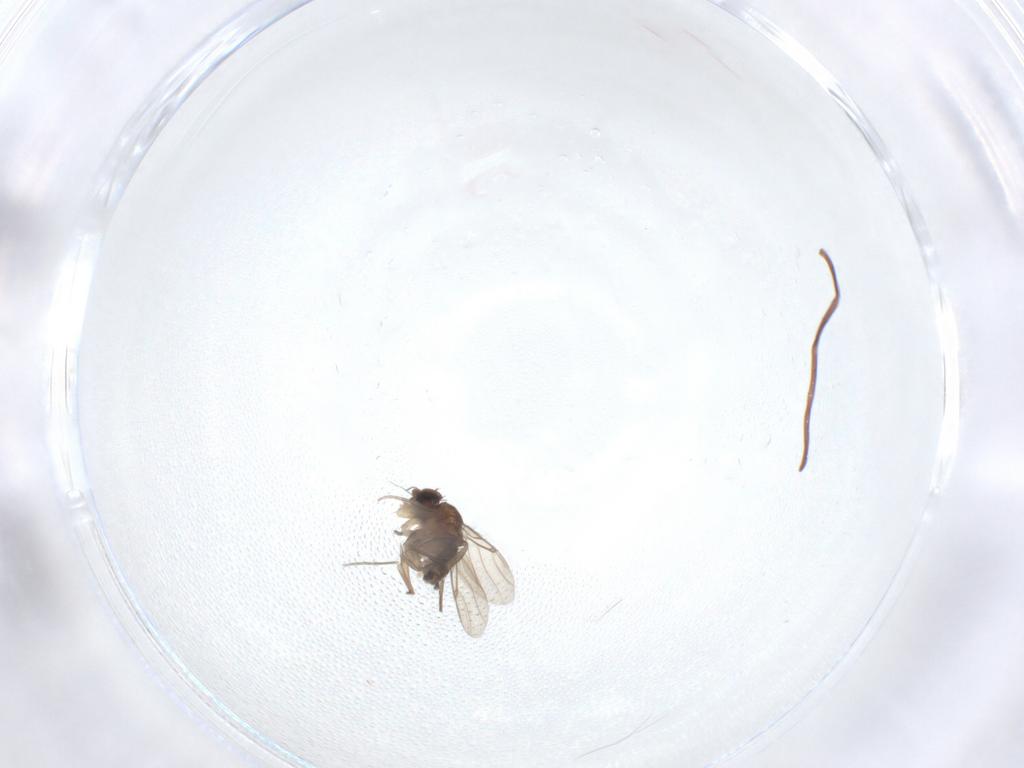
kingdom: Animalia
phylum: Arthropoda
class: Insecta
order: Diptera
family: Phoridae
